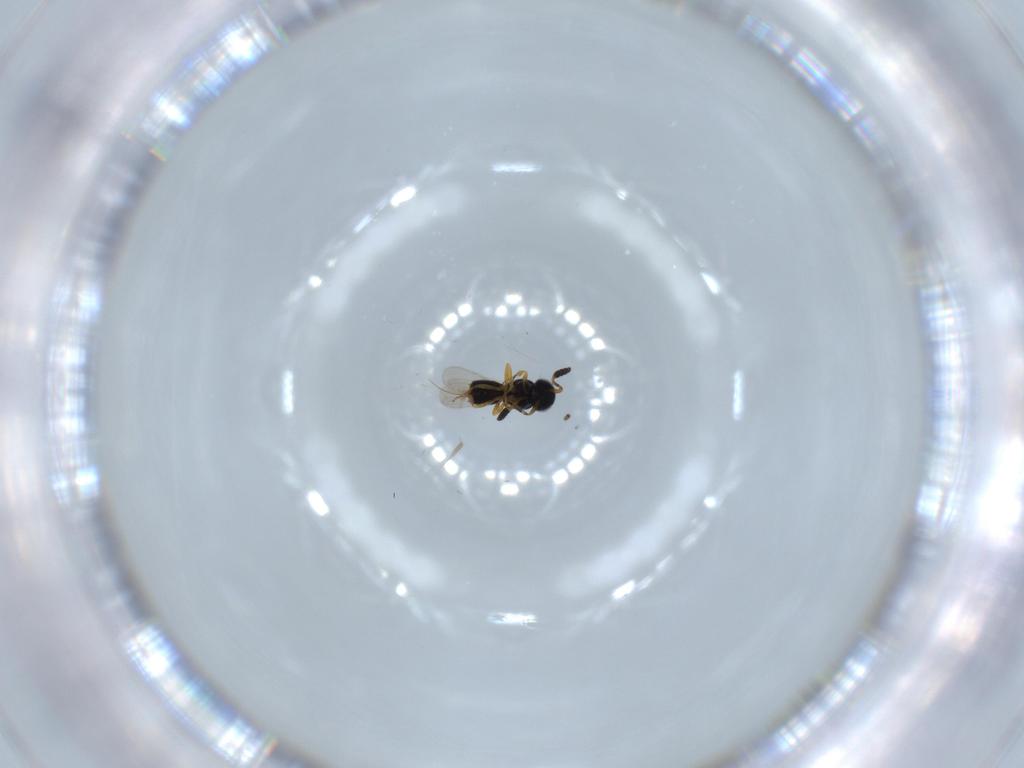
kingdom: Animalia
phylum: Arthropoda
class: Insecta
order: Hymenoptera
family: Scelionidae
